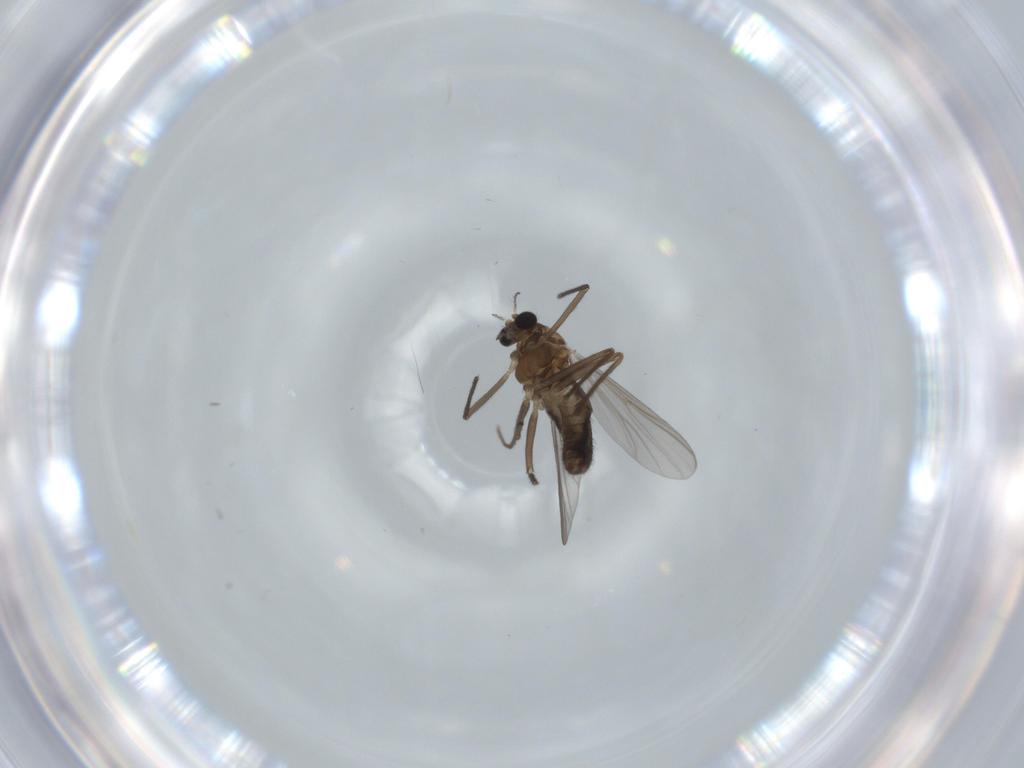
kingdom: Animalia
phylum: Arthropoda
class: Insecta
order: Diptera
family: Chironomidae
